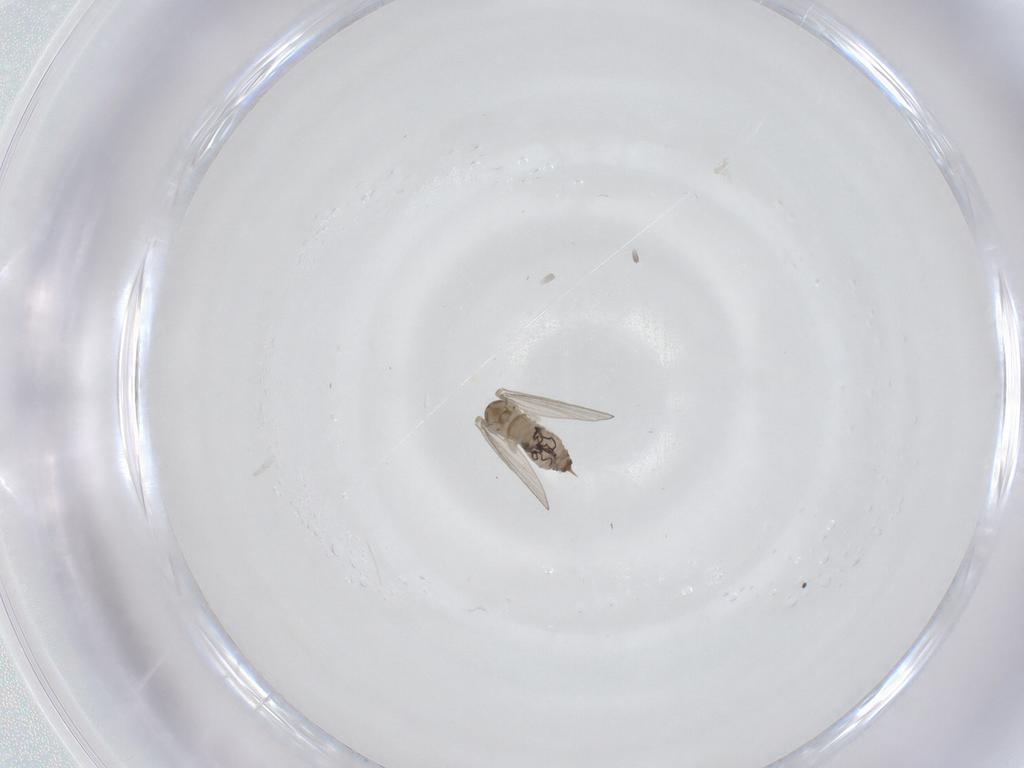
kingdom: Animalia
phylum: Arthropoda
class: Insecta
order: Diptera
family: Psychodidae
